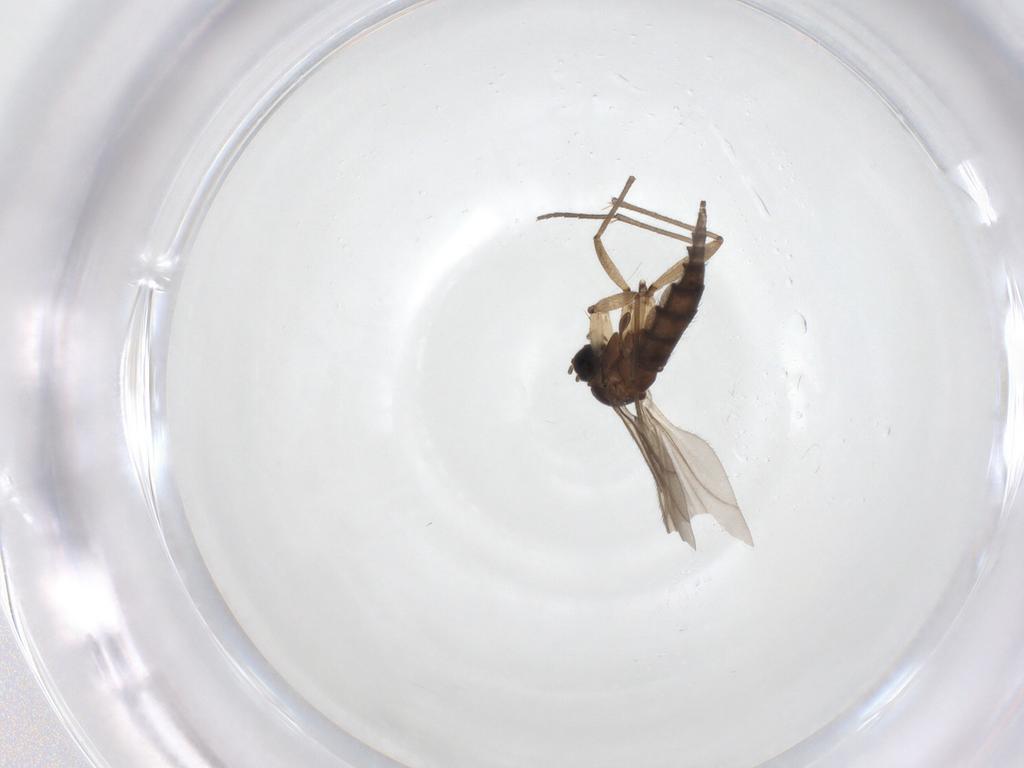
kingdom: Animalia
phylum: Arthropoda
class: Insecta
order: Diptera
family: Sciaridae
